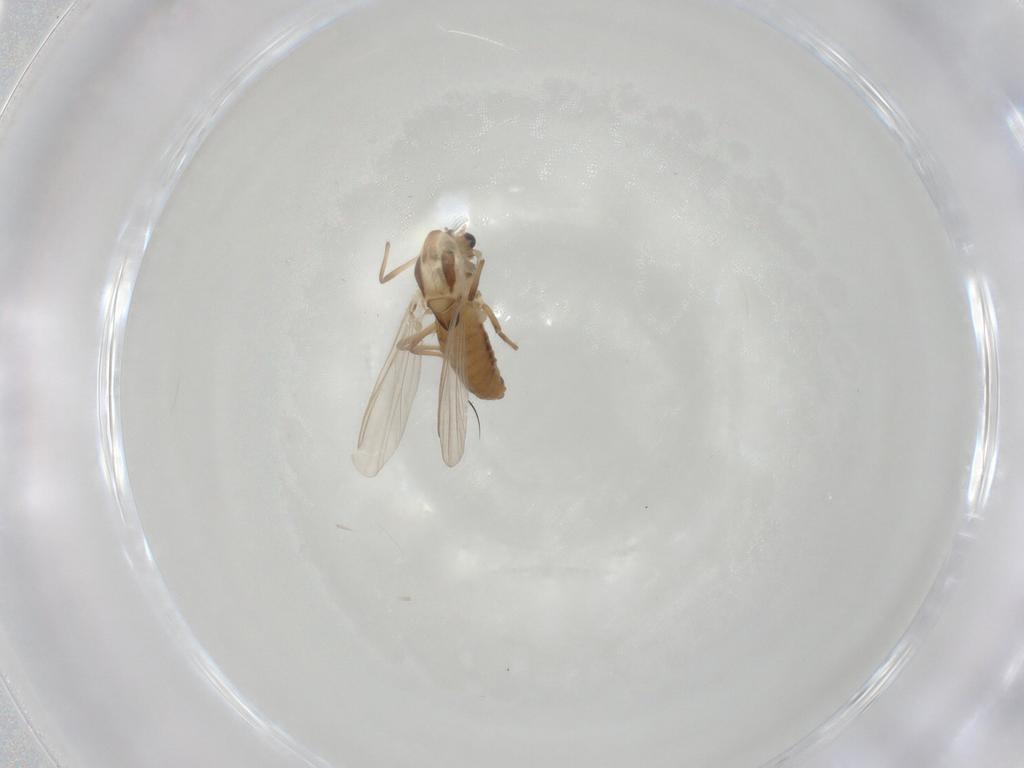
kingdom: Animalia
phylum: Arthropoda
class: Insecta
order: Diptera
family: Chironomidae
